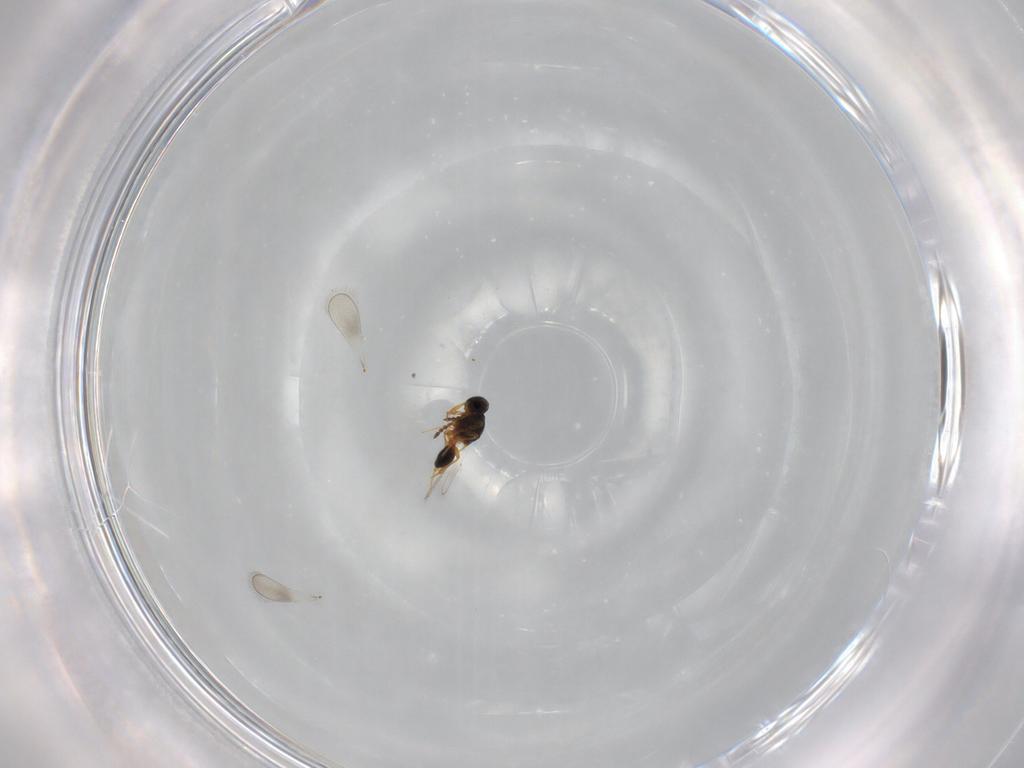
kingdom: Animalia
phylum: Arthropoda
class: Insecta
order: Hymenoptera
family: Platygastridae
